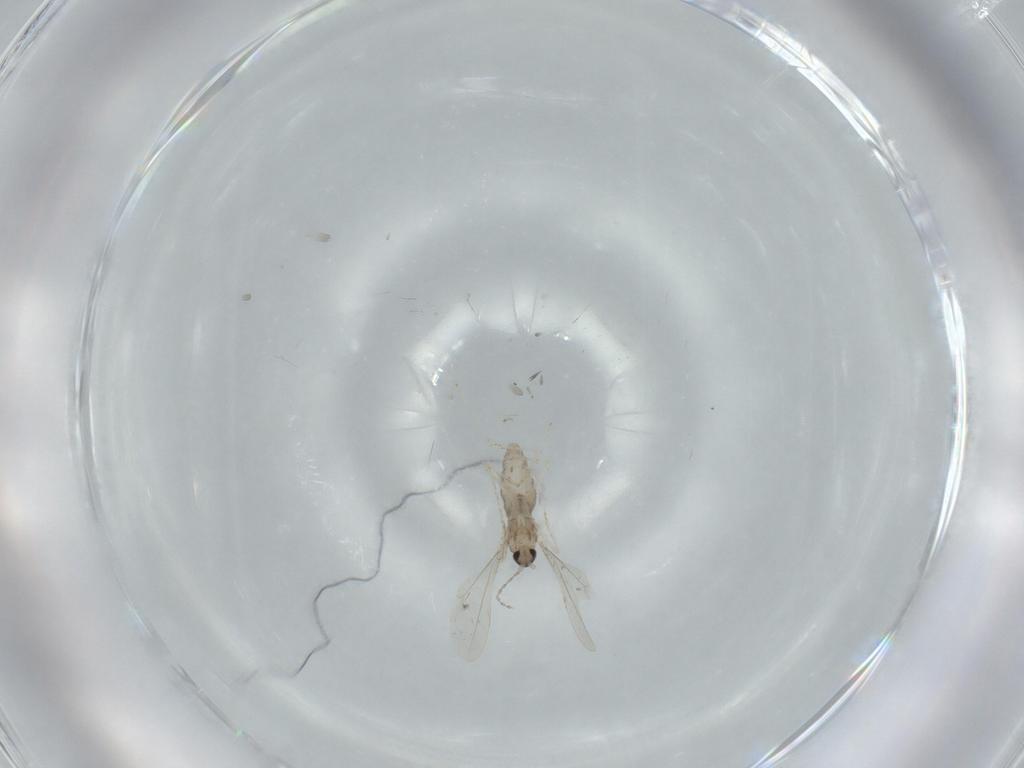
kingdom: Animalia
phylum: Arthropoda
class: Insecta
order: Diptera
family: Cecidomyiidae
